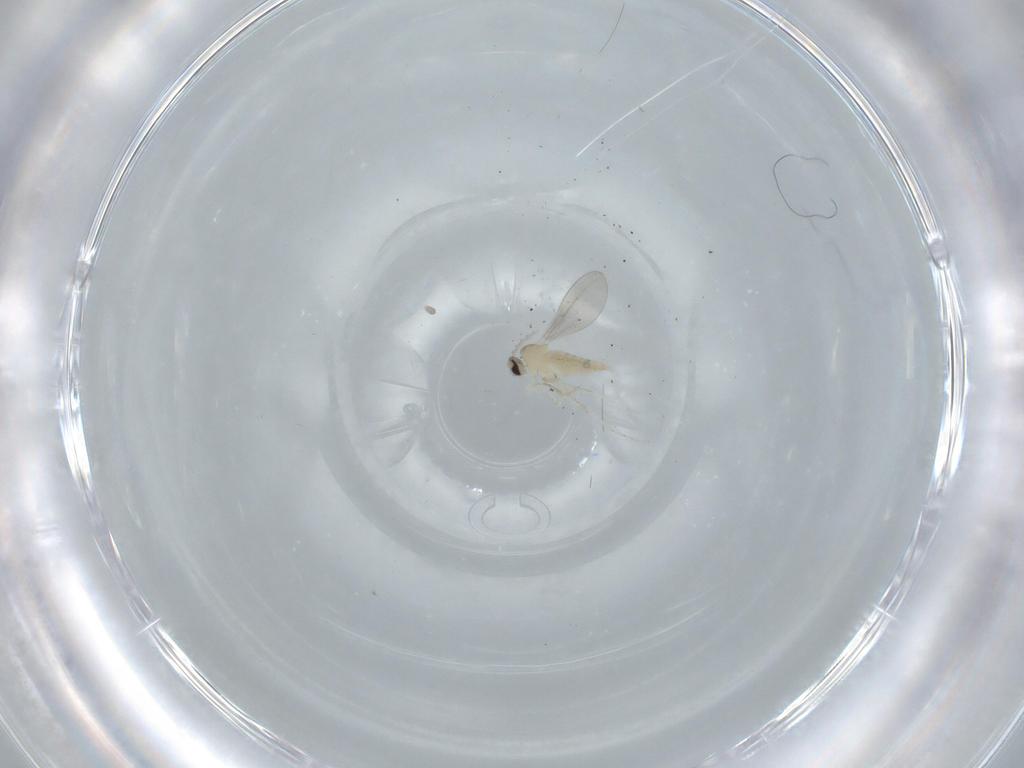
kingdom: Animalia
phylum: Arthropoda
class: Insecta
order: Diptera
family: Cecidomyiidae
